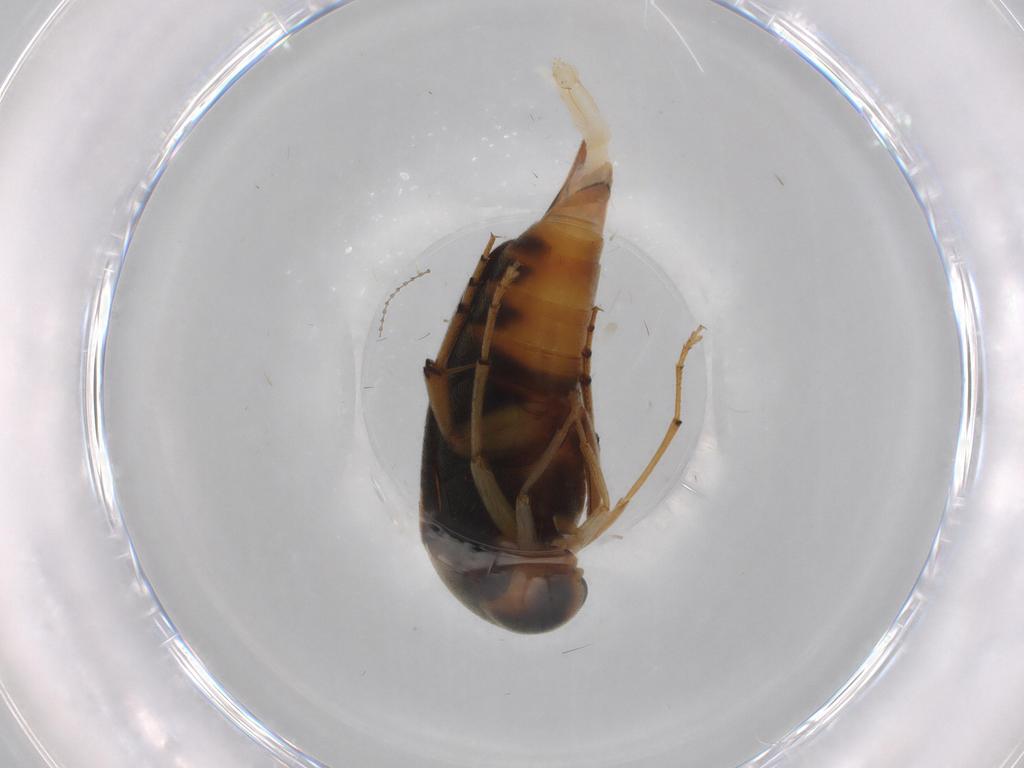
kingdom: Animalia
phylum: Arthropoda
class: Insecta
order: Coleoptera
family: Mordellidae
